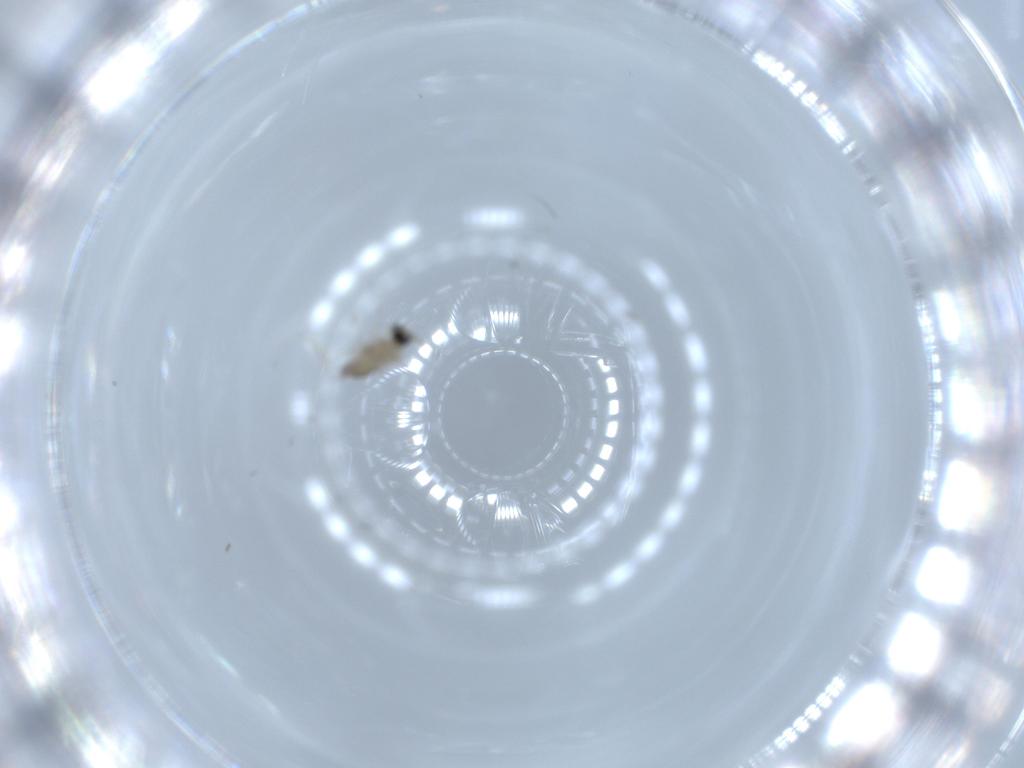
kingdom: Animalia
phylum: Arthropoda
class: Insecta
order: Diptera
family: Cecidomyiidae
